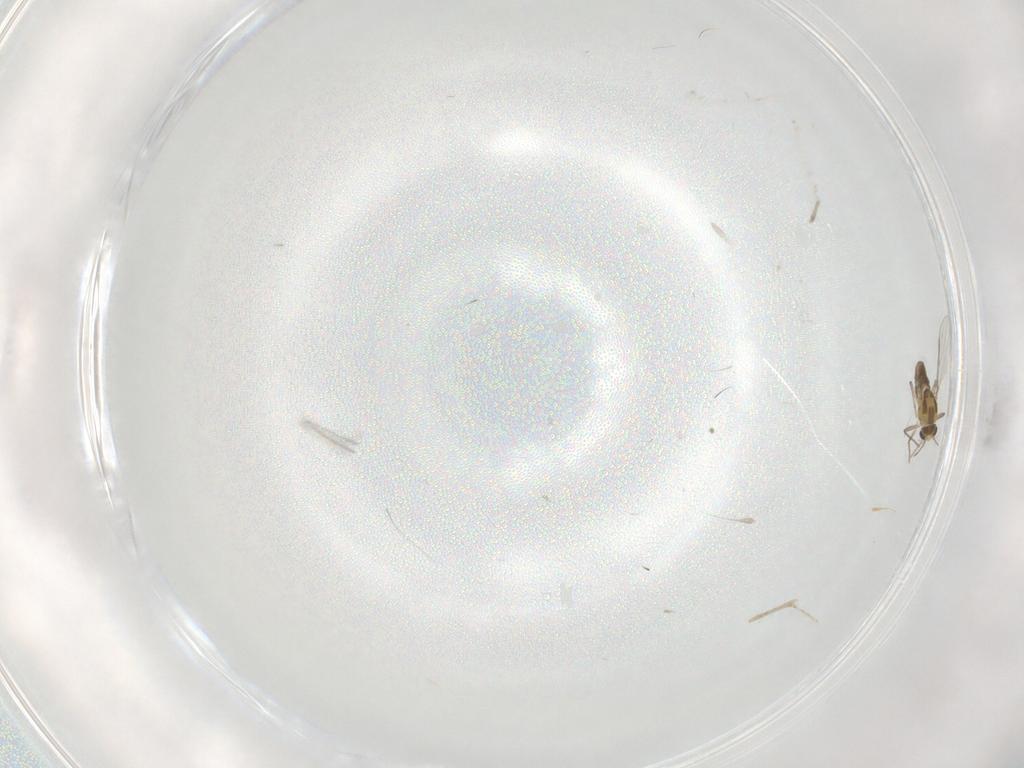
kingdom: Animalia
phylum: Arthropoda
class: Insecta
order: Diptera
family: Chironomidae
